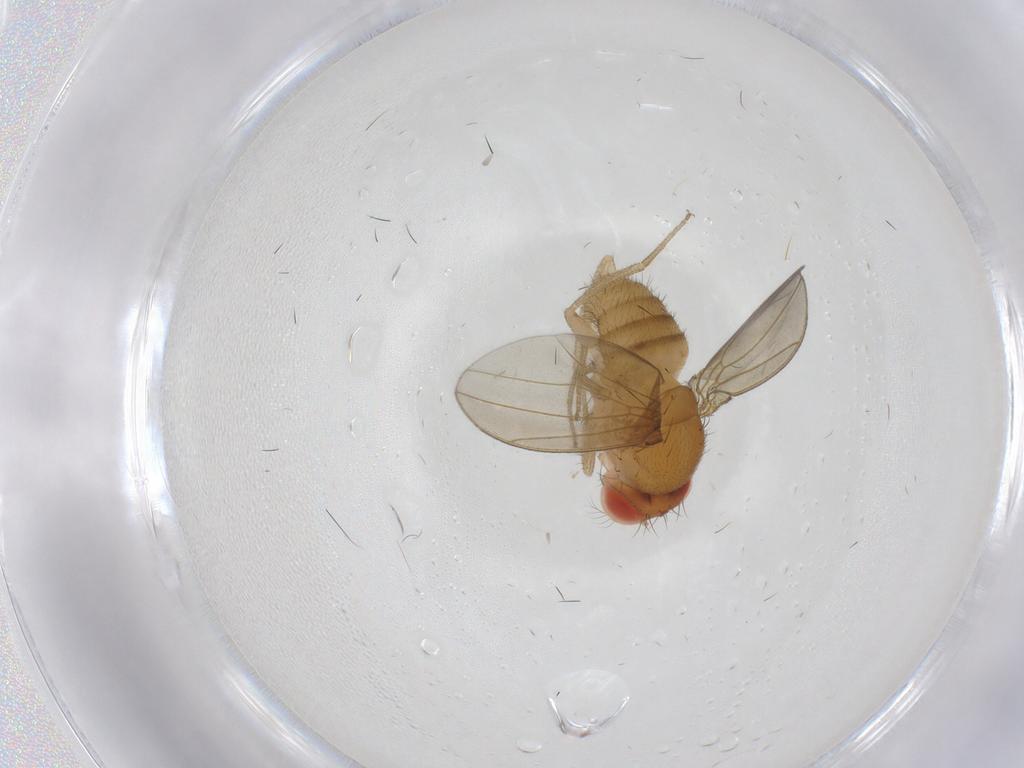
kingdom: Animalia
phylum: Arthropoda
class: Insecta
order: Diptera
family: Drosophilidae
